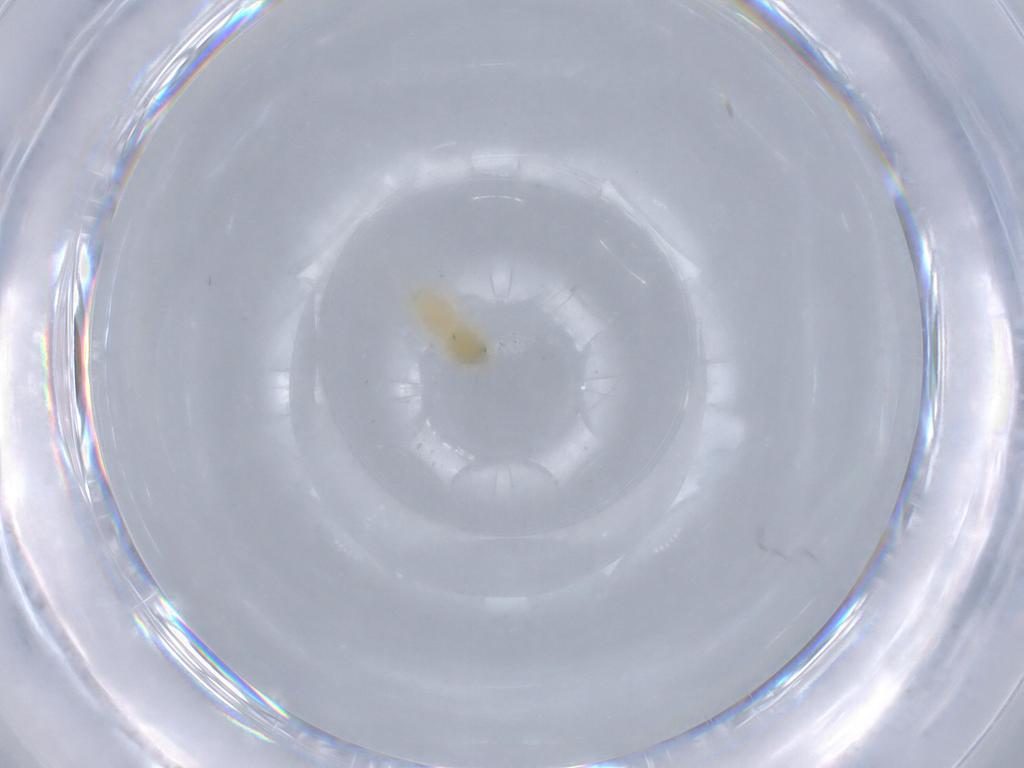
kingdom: Animalia
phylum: Arthropoda
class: Insecta
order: Hemiptera
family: Aleyrodidae
